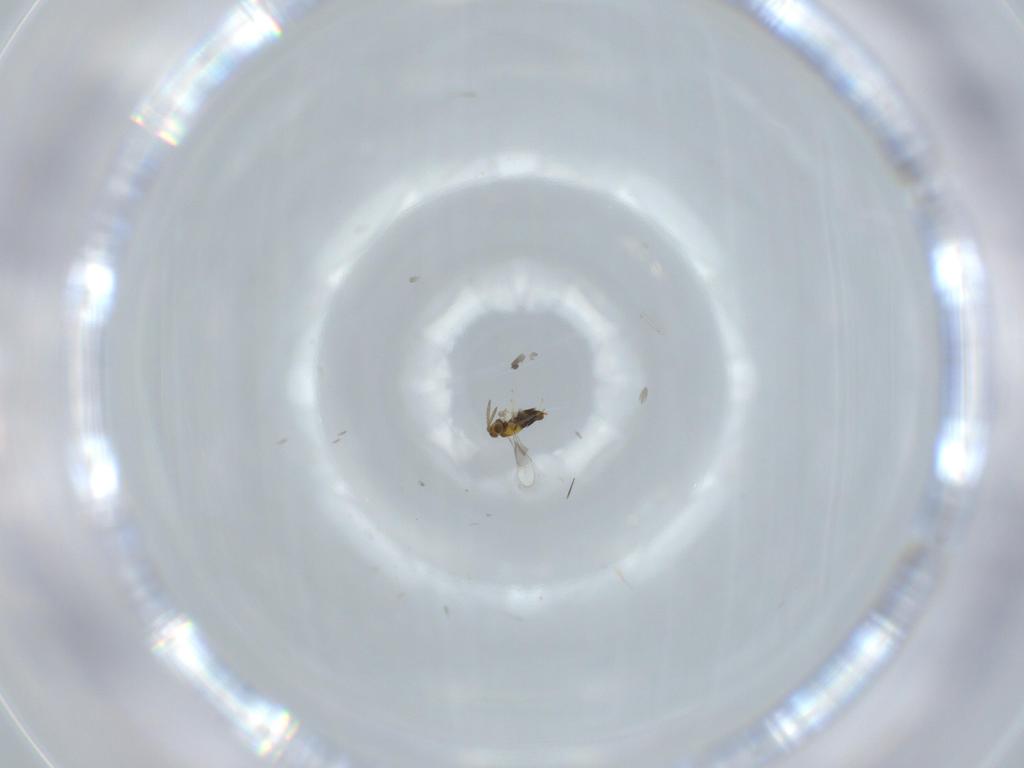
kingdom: Animalia
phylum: Arthropoda
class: Insecta
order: Hymenoptera
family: Aphelinidae
